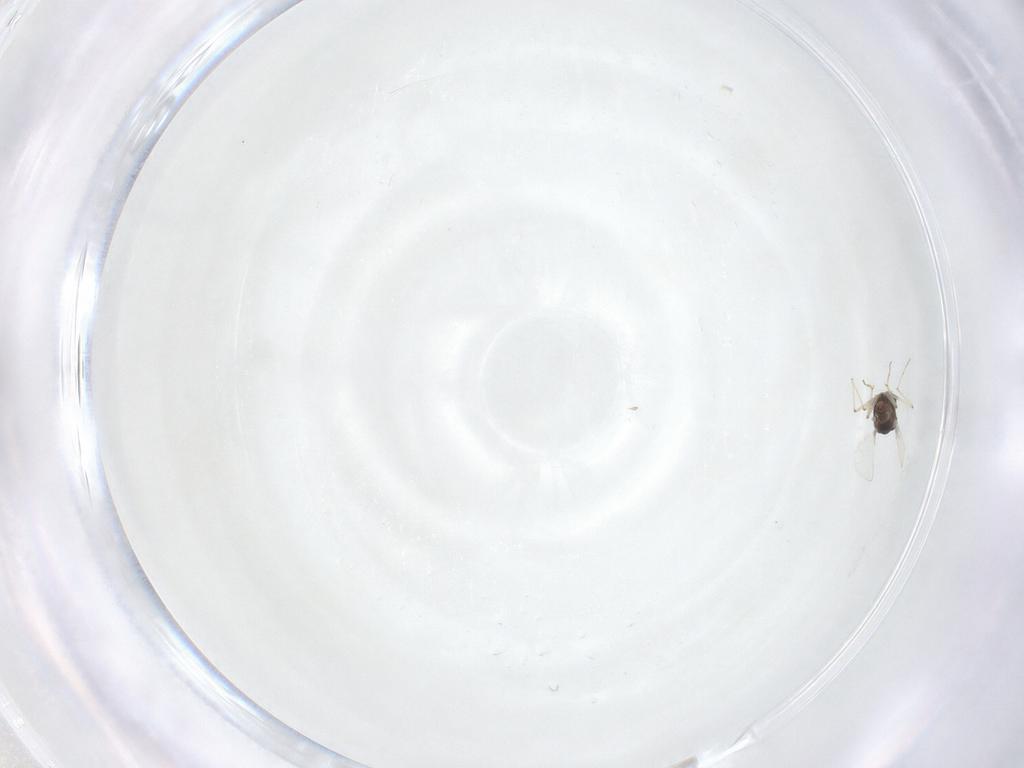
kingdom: Animalia
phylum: Arthropoda
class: Insecta
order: Diptera
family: Chironomidae
